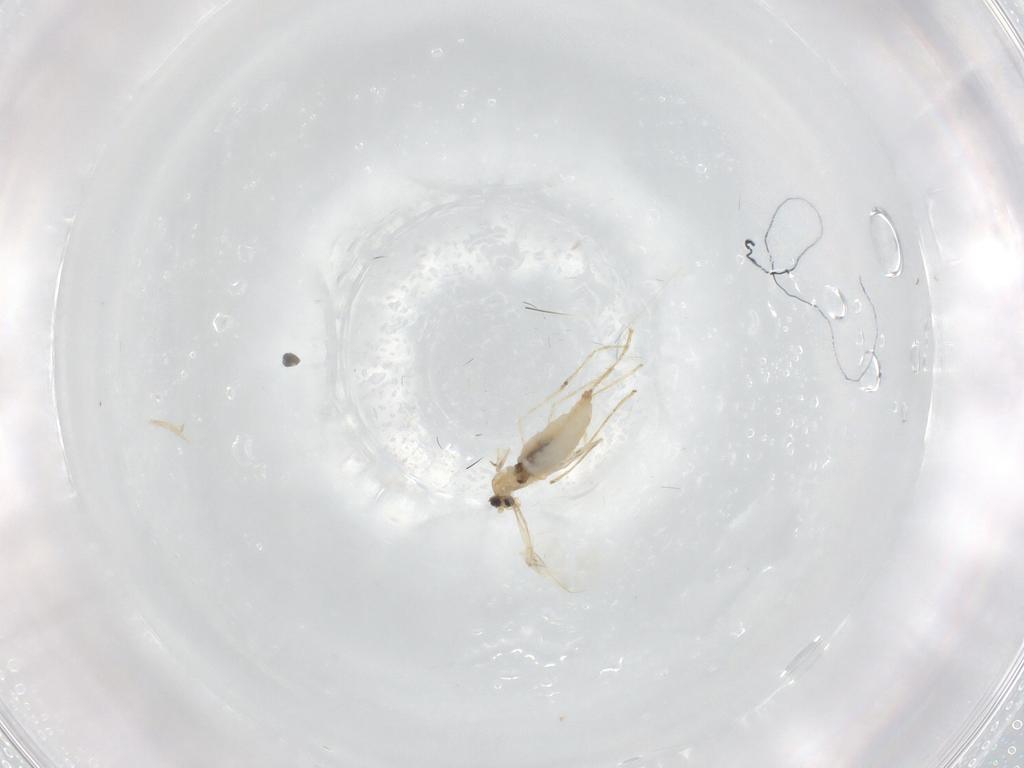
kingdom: Animalia
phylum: Arthropoda
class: Insecta
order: Diptera
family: Cecidomyiidae
